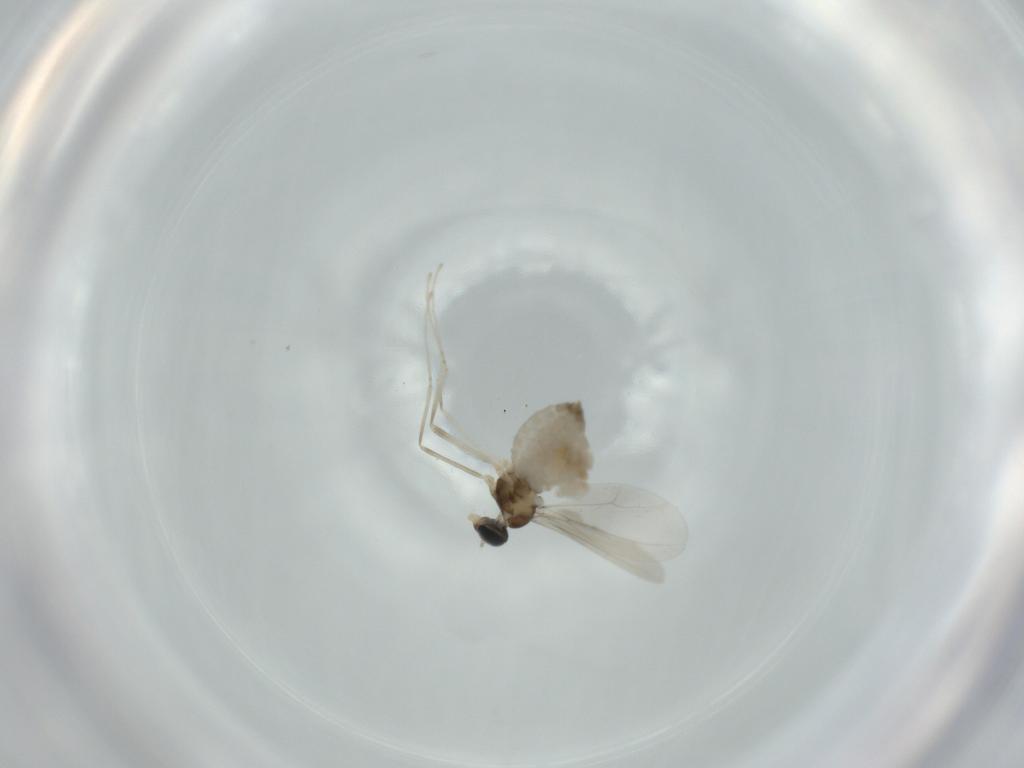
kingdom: Animalia
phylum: Arthropoda
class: Insecta
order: Diptera
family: Cecidomyiidae
